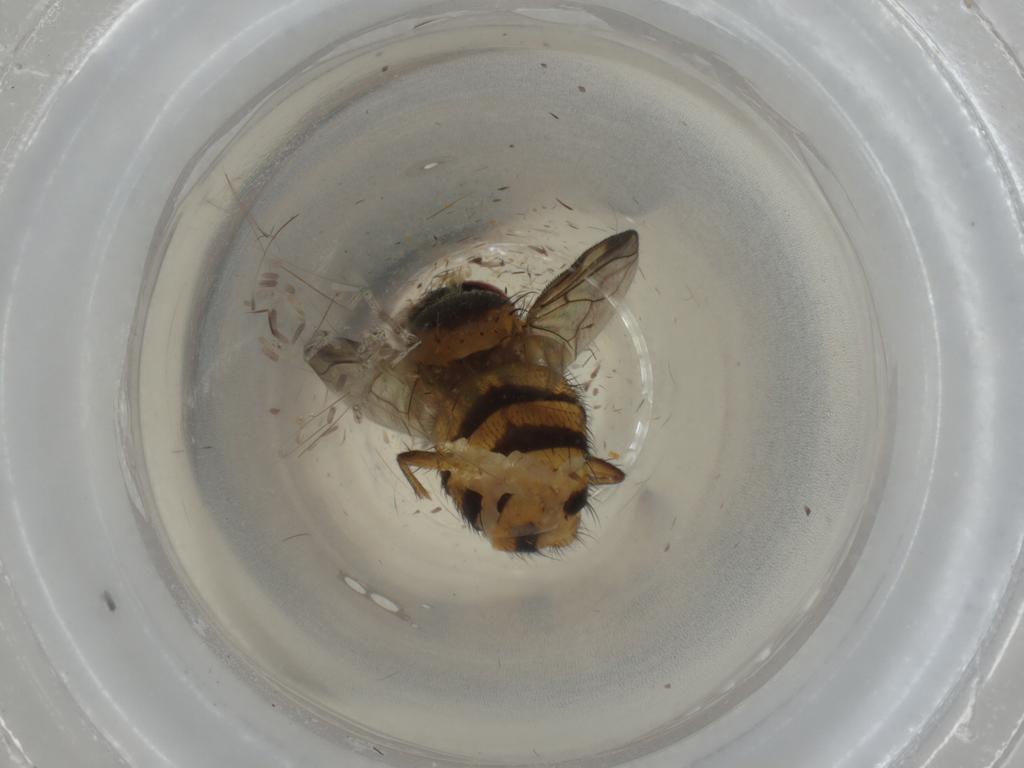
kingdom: Animalia
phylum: Arthropoda
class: Insecta
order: Diptera
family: Calliphoridae
